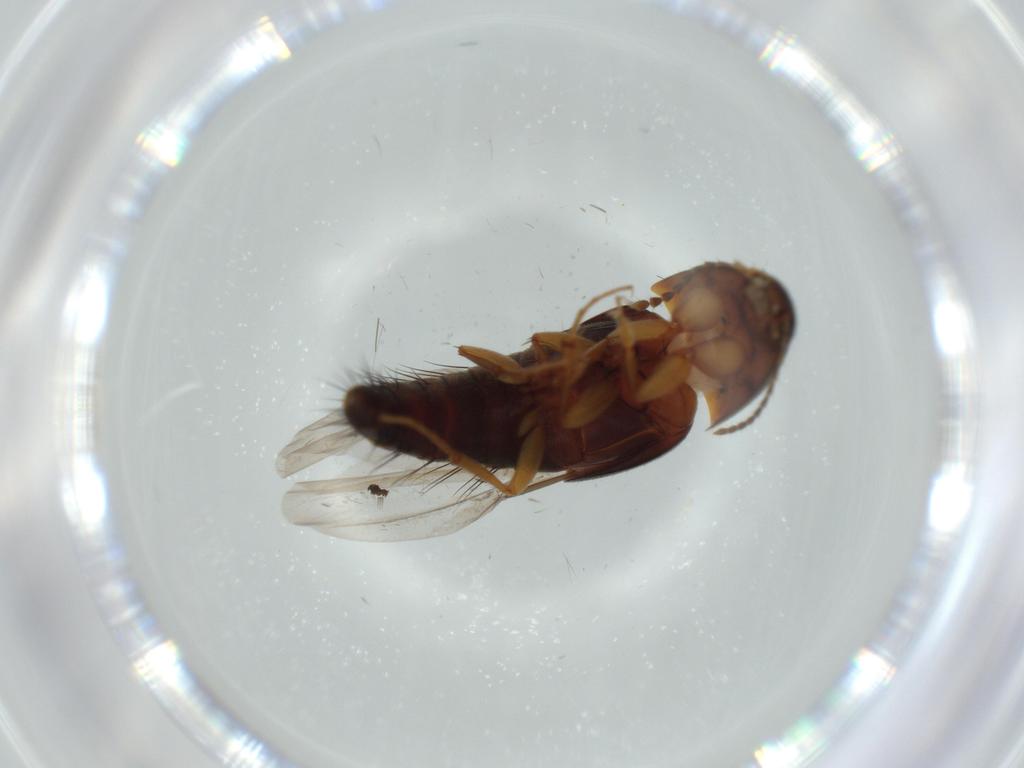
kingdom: Animalia
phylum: Arthropoda
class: Insecta
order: Coleoptera
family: Staphylinidae
